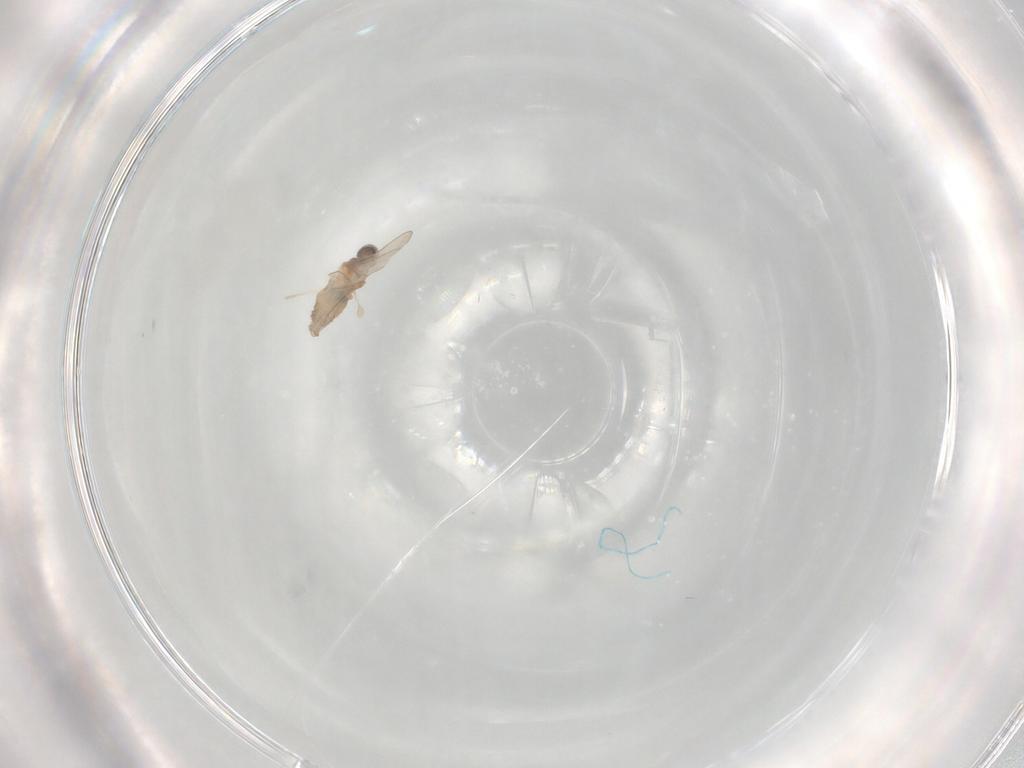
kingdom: Animalia
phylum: Arthropoda
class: Insecta
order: Diptera
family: Cecidomyiidae
